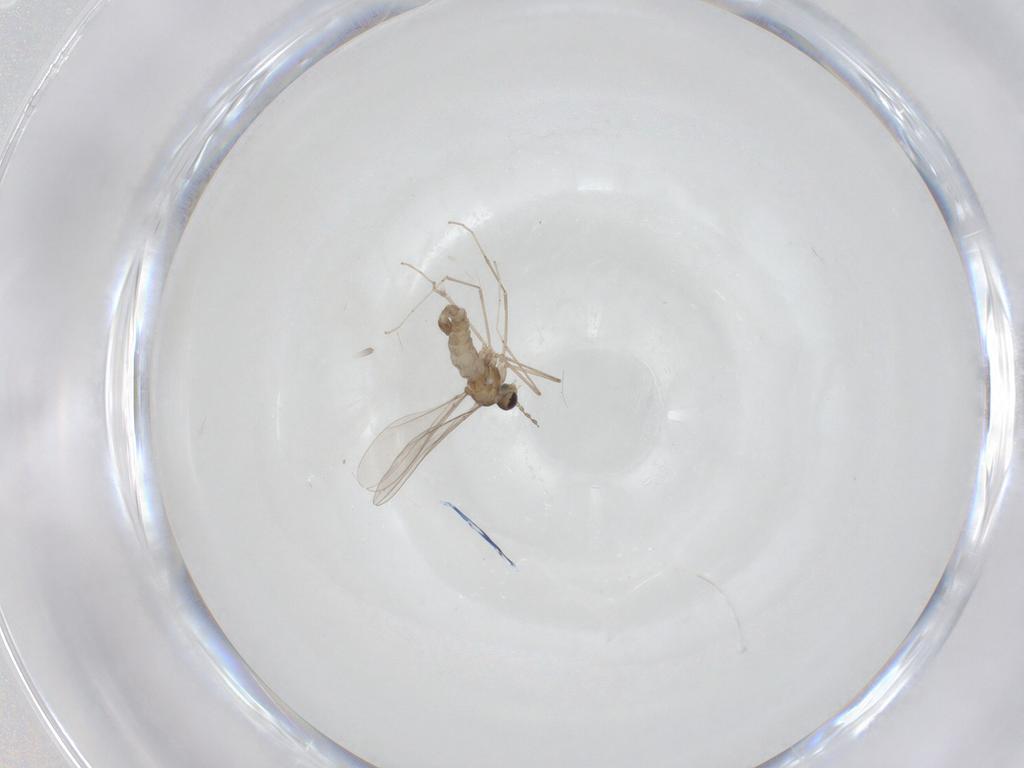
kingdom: Animalia
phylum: Arthropoda
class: Insecta
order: Diptera
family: Cecidomyiidae
